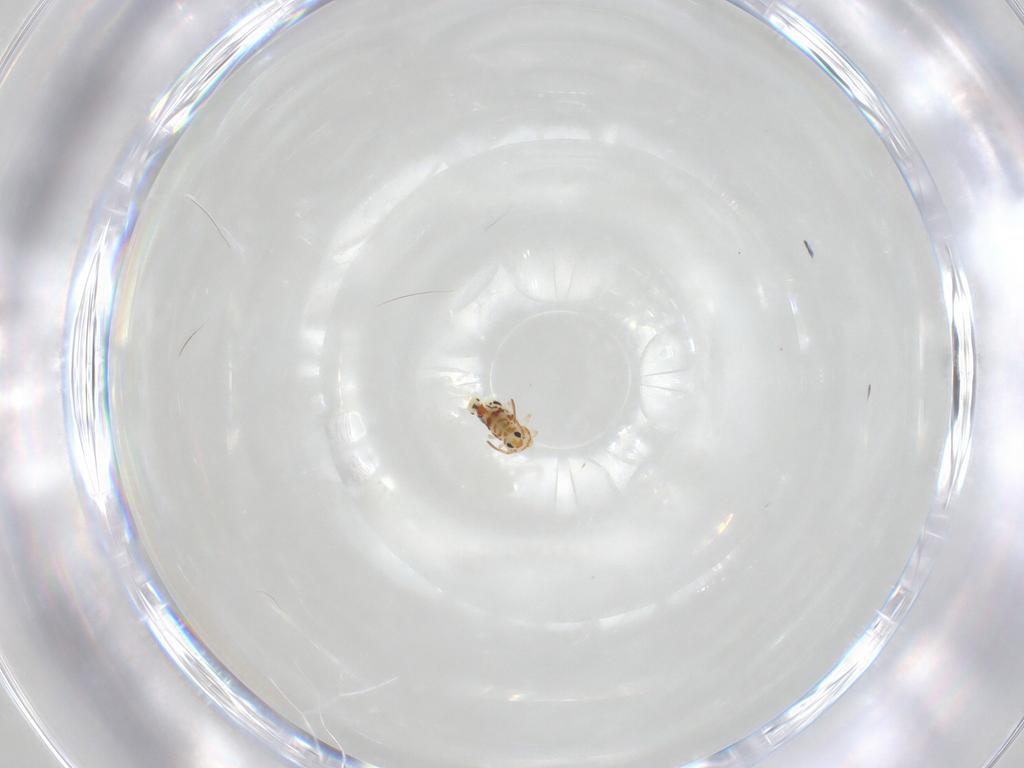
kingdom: Animalia
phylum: Arthropoda
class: Collembola
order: Symphypleona
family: Bourletiellidae
